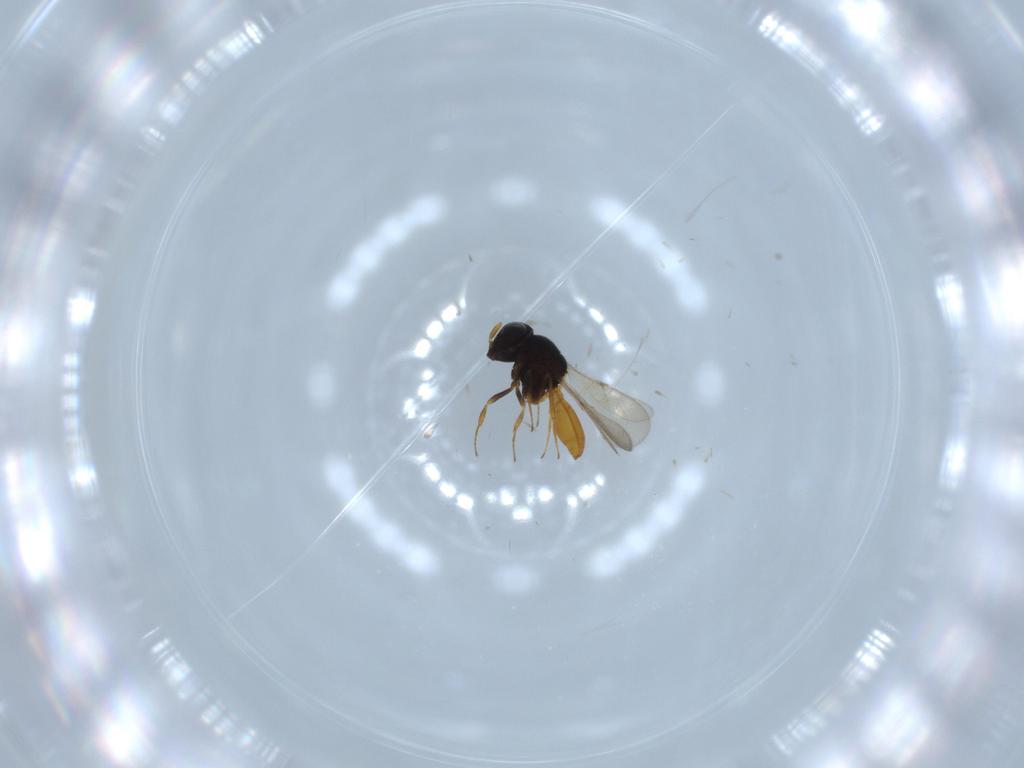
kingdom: Animalia
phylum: Arthropoda
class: Insecta
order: Hymenoptera
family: Scelionidae
